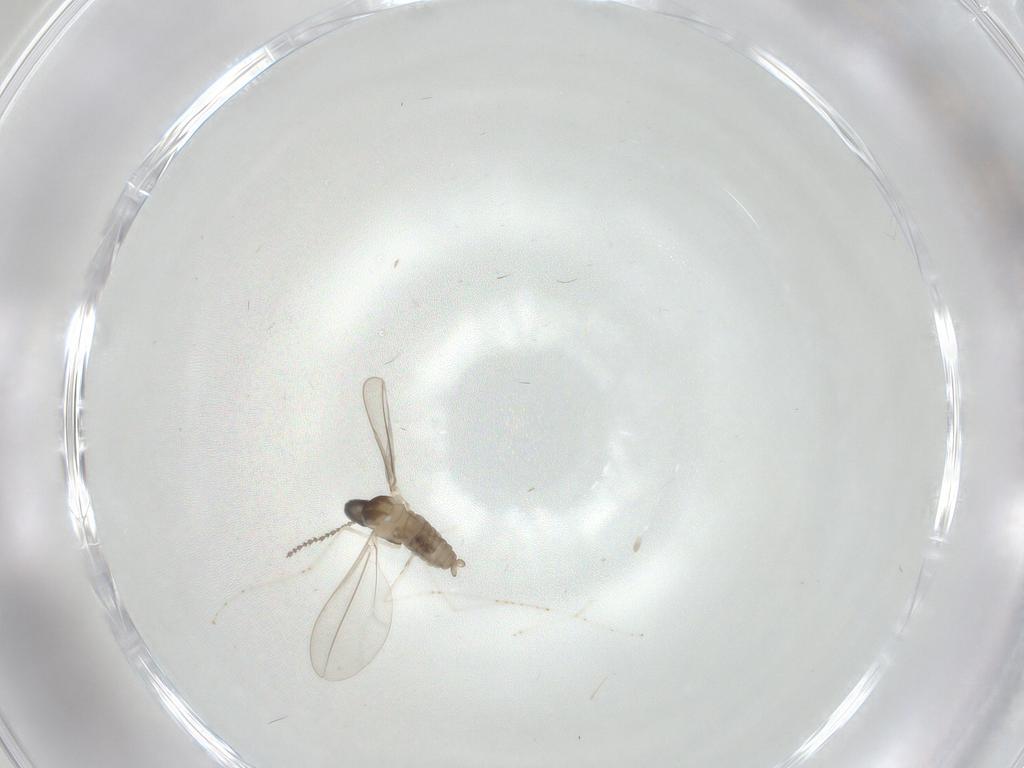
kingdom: Animalia
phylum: Arthropoda
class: Insecta
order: Diptera
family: Cecidomyiidae
